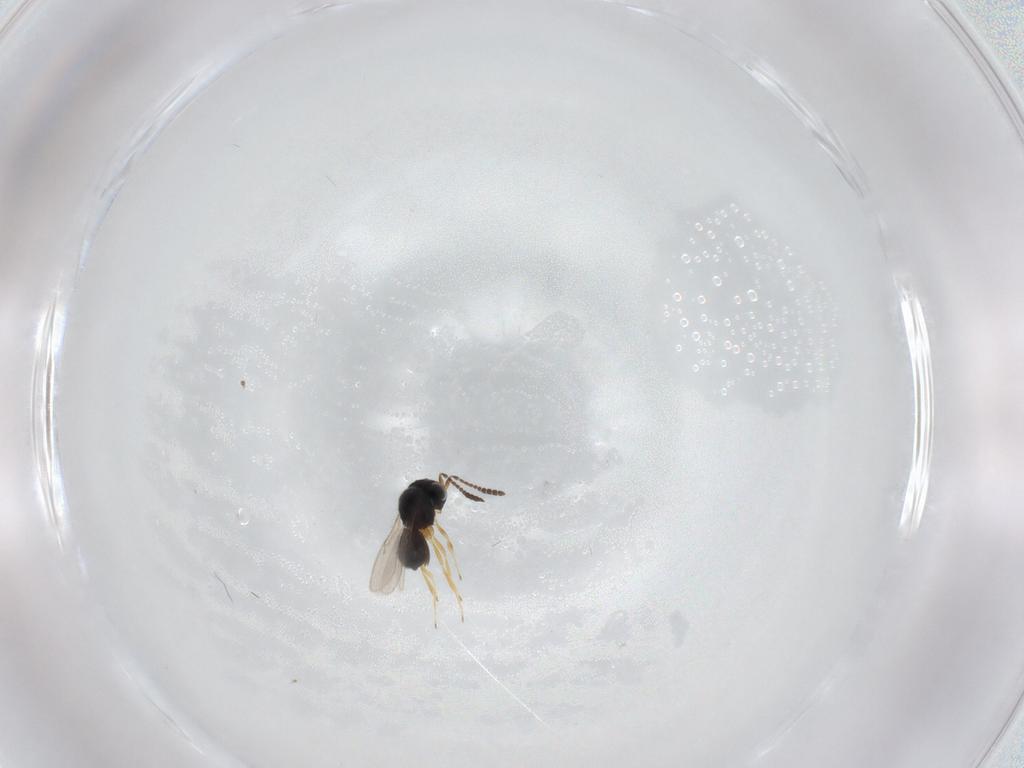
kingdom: Animalia
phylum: Arthropoda
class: Insecta
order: Hymenoptera
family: Scelionidae
